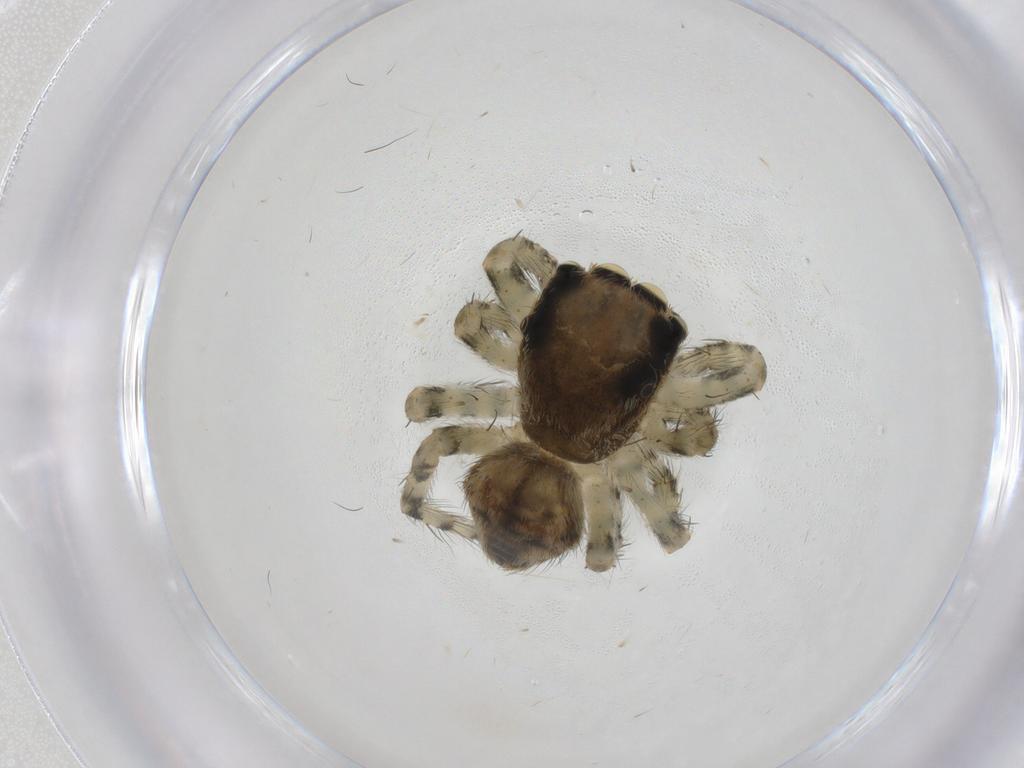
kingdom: Animalia
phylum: Arthropoda
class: Arachnida
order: Araneae
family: Salticidae
